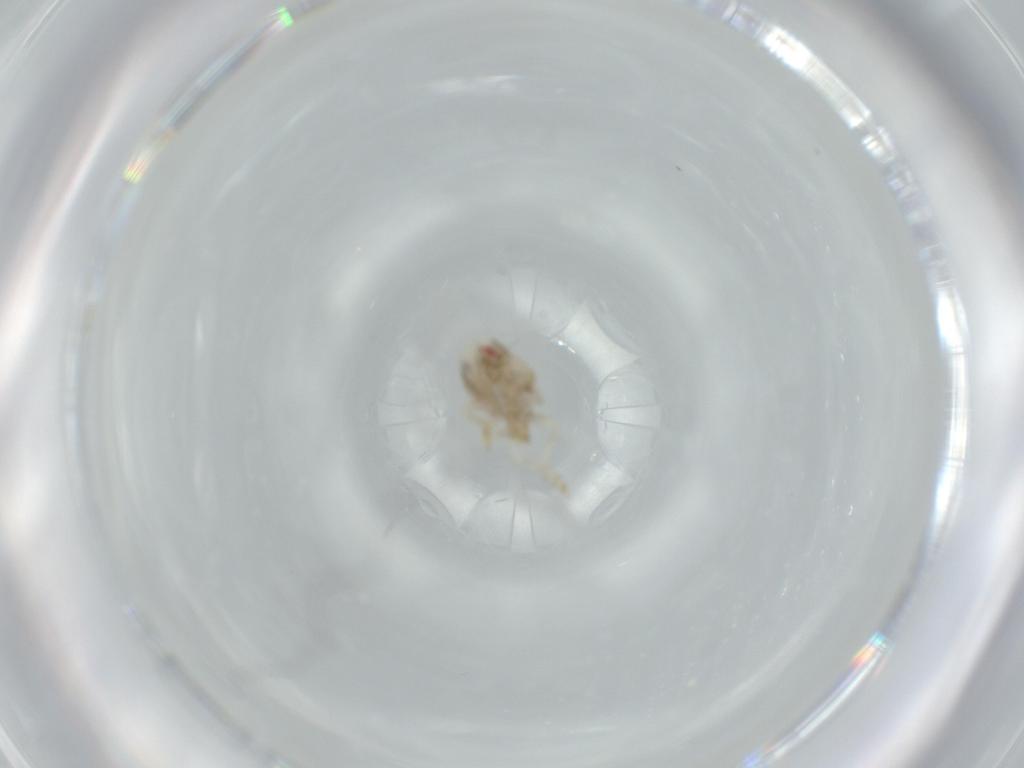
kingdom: Animalia
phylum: Arthropoda
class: Insecta
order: Hemiptera
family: Acanaloniidae
